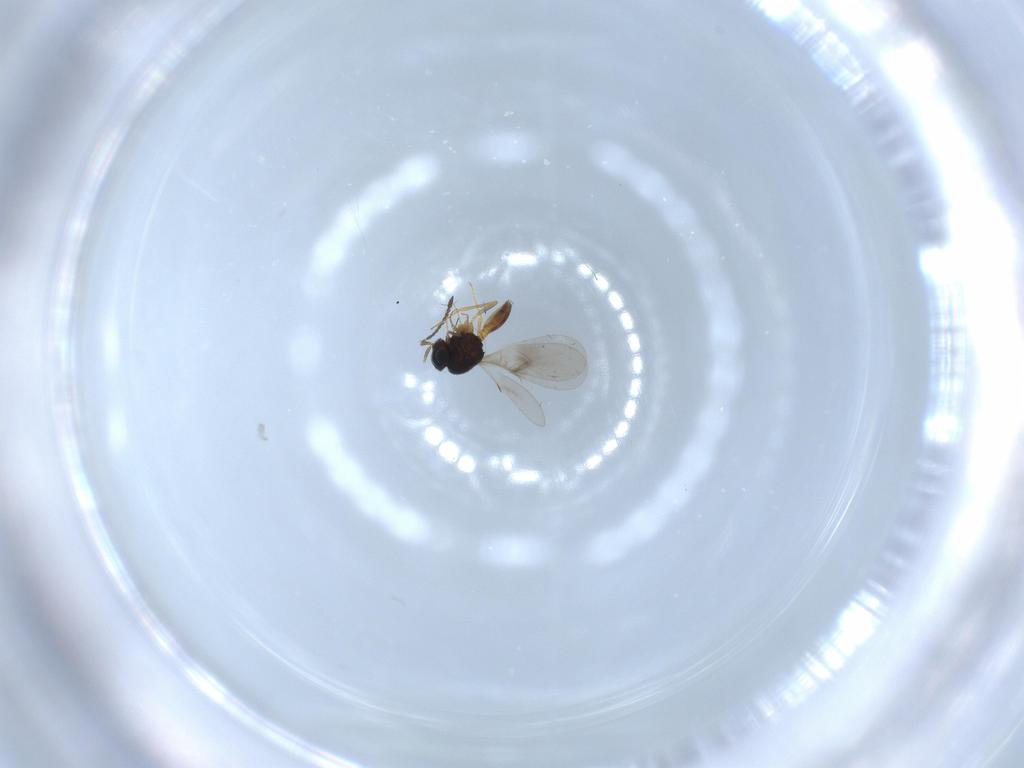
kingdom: Animalia
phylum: Arthropoda
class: Insecta
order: Hymenoptera
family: Scelionidae
